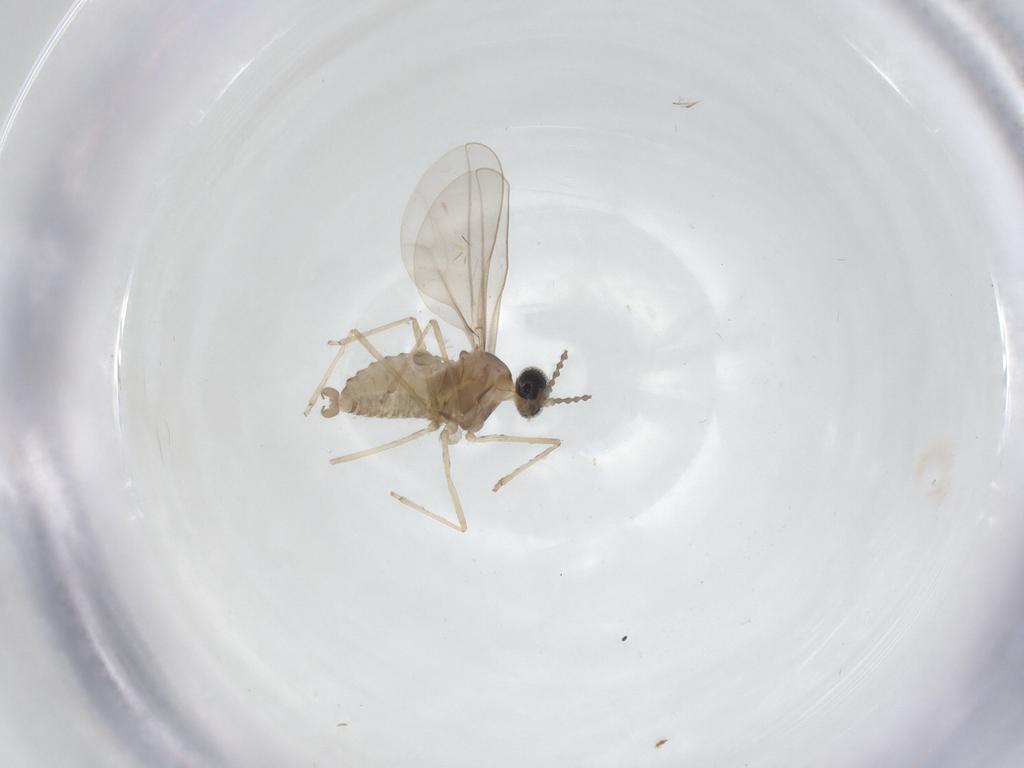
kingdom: Animalia
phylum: Arthropoda
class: Insecta
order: Diptera
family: Cecidomyiidae
